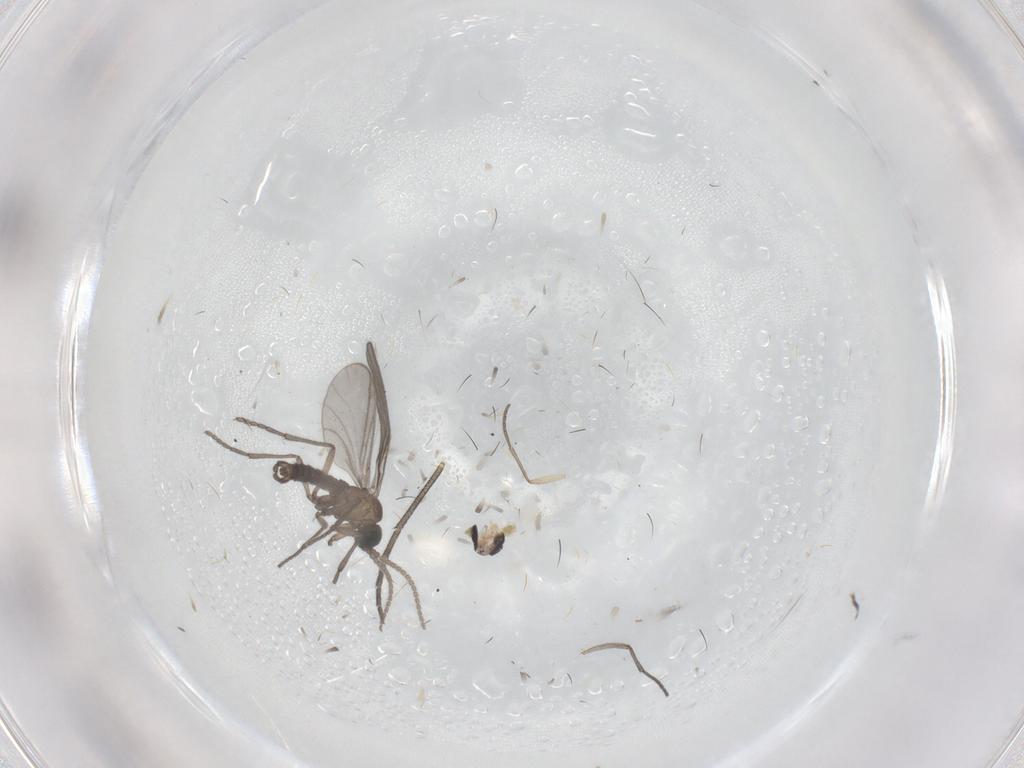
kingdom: Animalia
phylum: Arthropoda
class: Insecta
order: Diptera
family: Sciaridae
